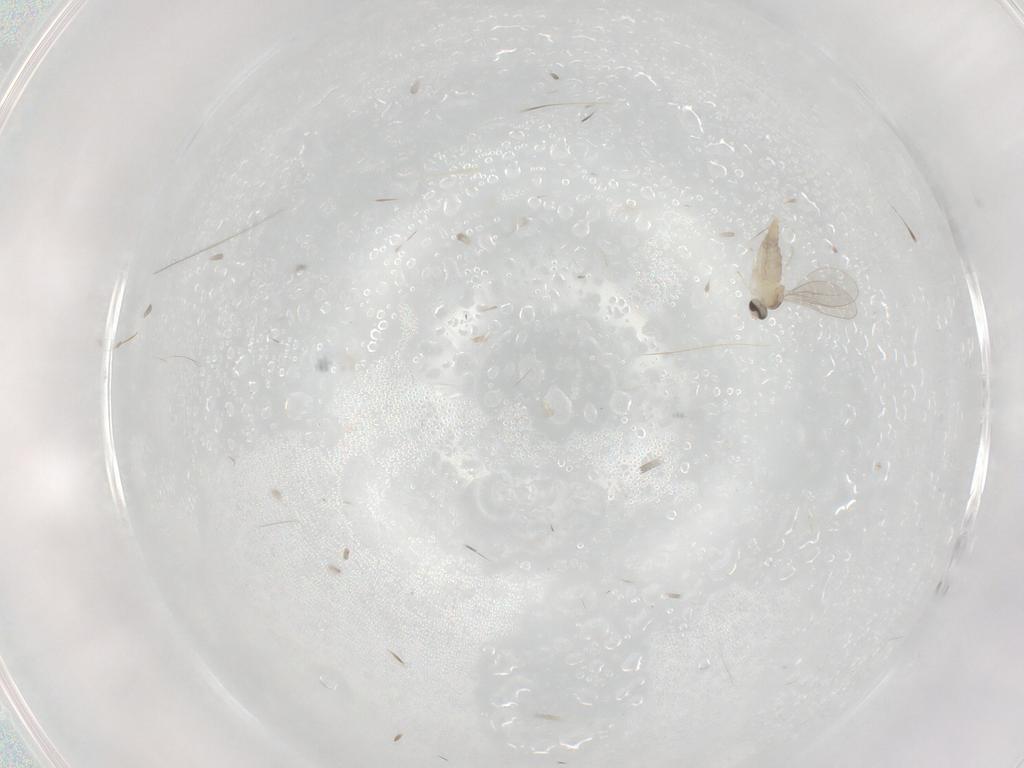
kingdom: Animalia
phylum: Arthropoda
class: Insecta
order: Diptera
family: Cecidomyiidae
